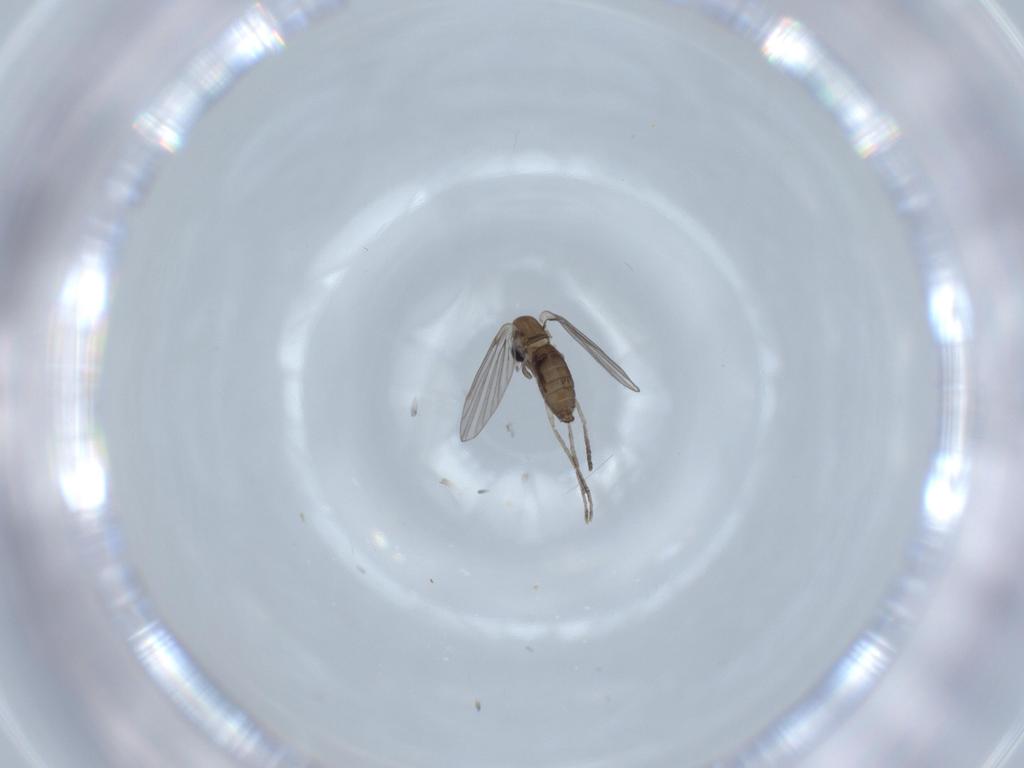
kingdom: Animalia
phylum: Arthropoda
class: Insecta
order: Diptera
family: Psychodidae
